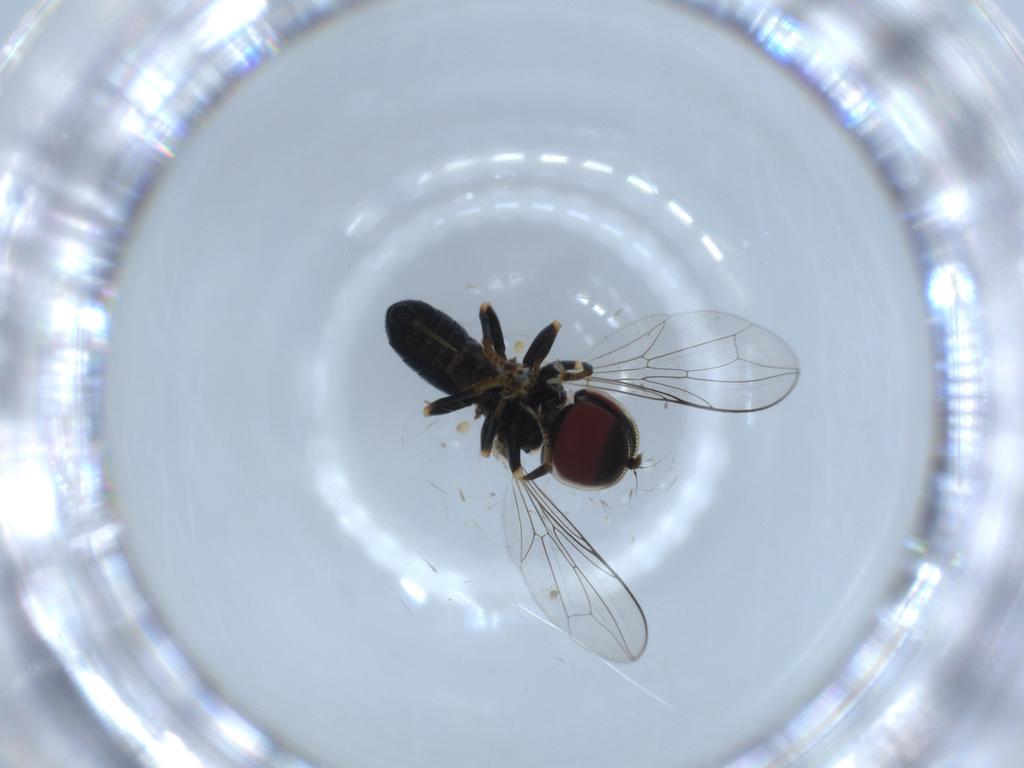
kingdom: Animalia
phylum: Arthropoda
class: Insecta
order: Diptera
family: Pipunculidae
